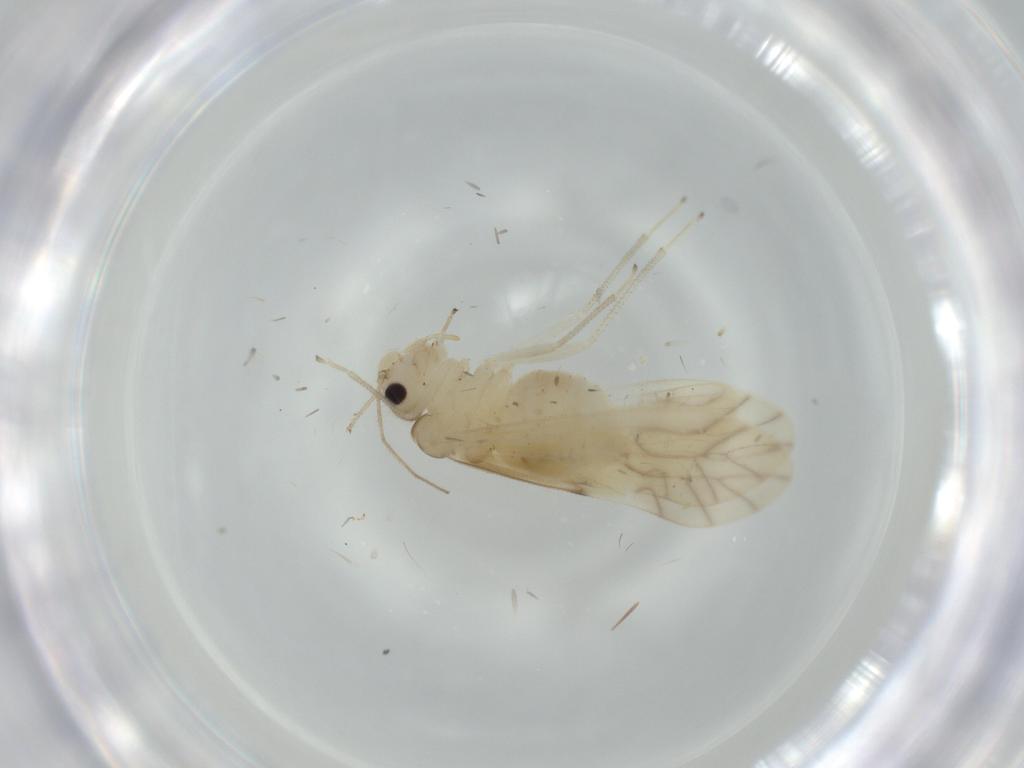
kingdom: Animalia
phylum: Arthropoda
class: Insecta
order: Psocodea
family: Caeciliusidae
